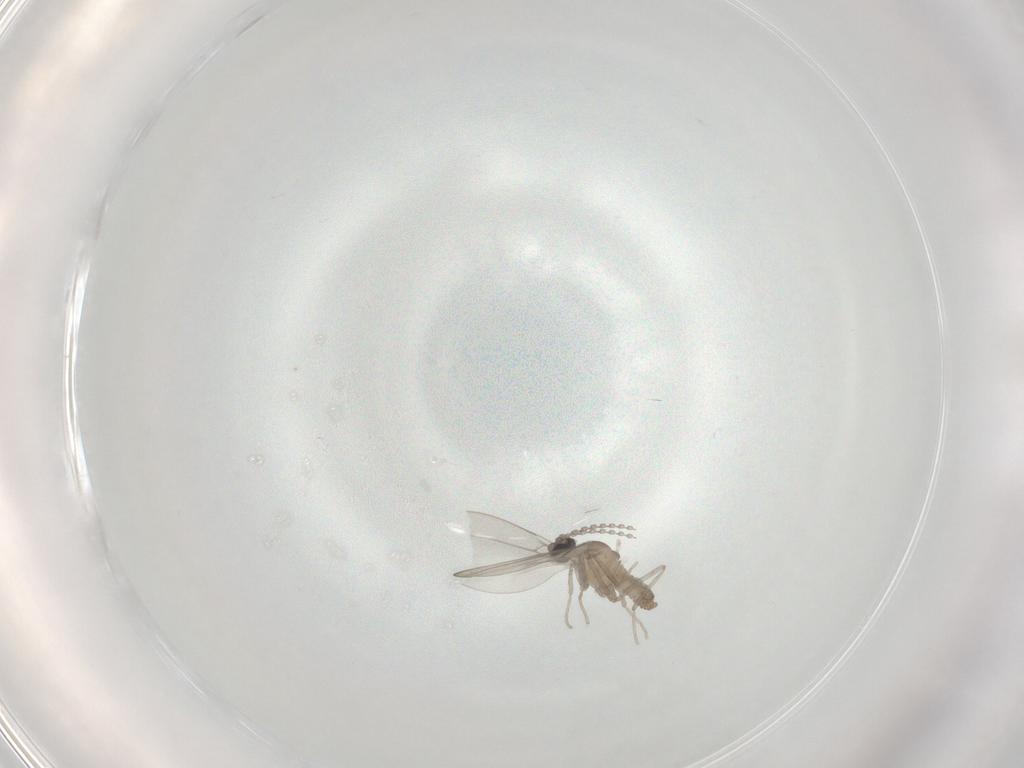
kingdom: Animalia
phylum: Arthropoda
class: Insecta
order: Diptera
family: Cecidomyiidae
